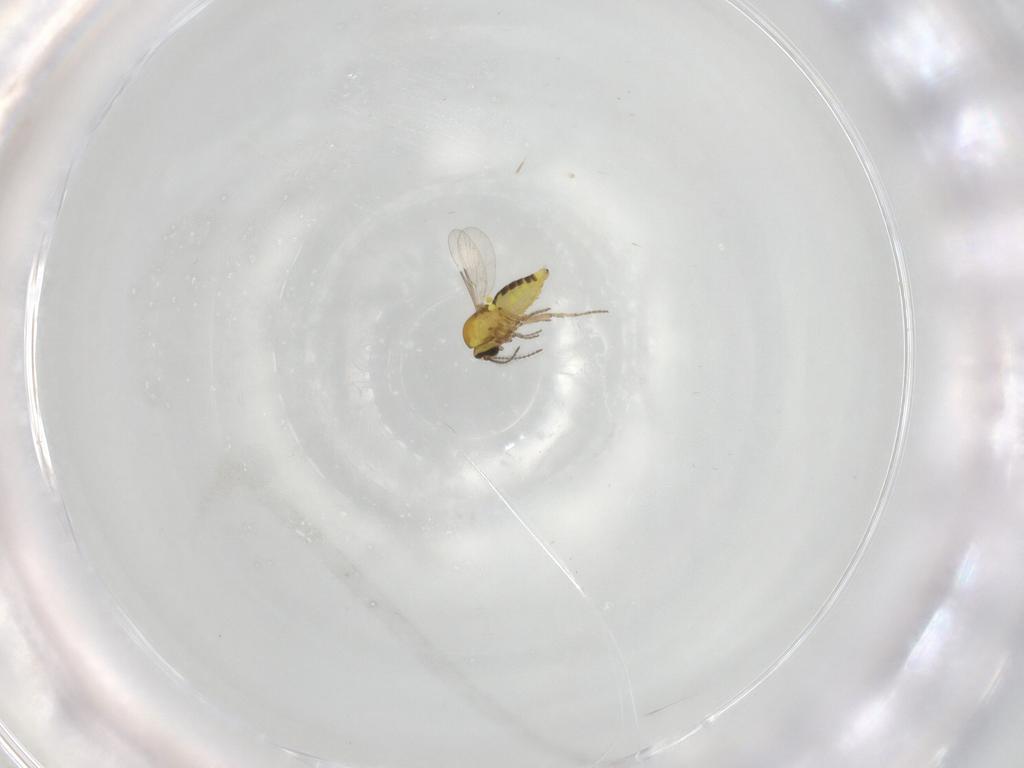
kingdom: Animalia
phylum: Arthropoda
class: Insecta
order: Diptera
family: Ceratopogonidae
